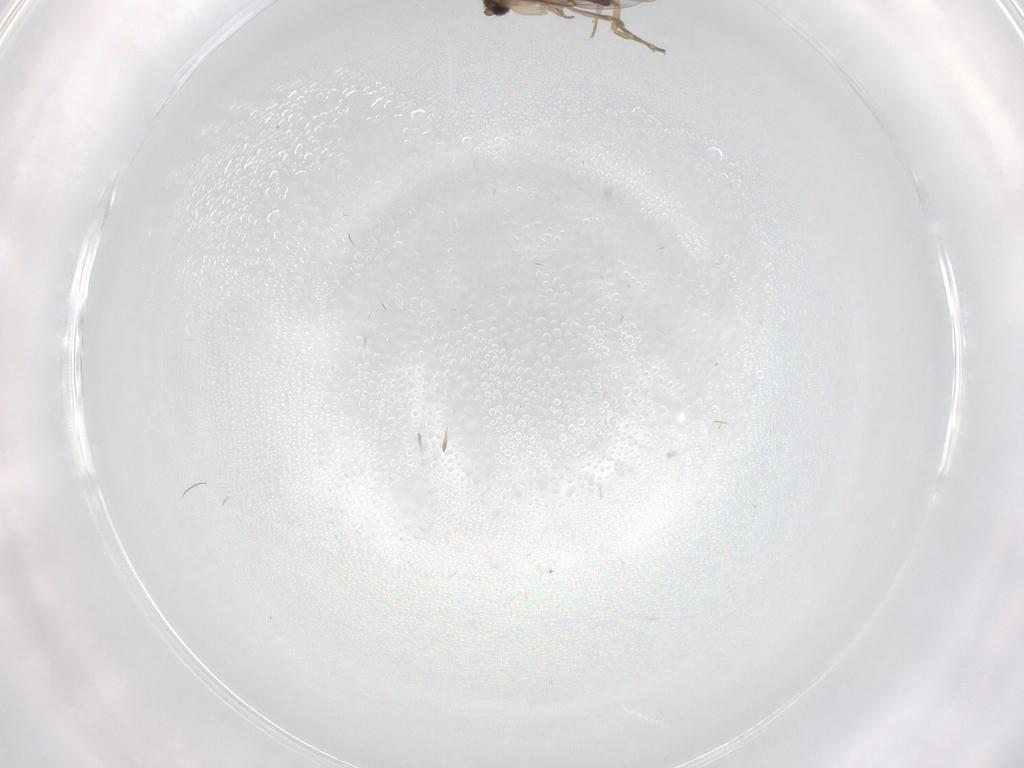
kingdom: Animalia
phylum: Arthropoda
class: Insecta
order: Diptera
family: Phoridae
